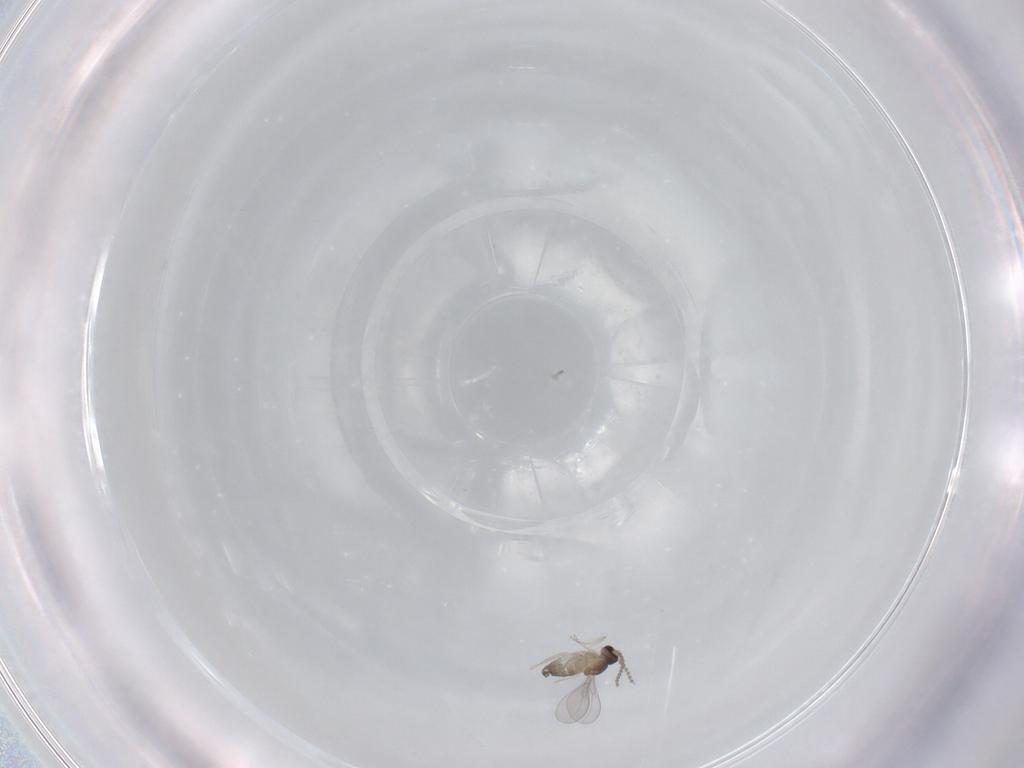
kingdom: Animalia
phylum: Arthropoda
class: Insecta
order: Diptera
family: Cecidomyiidae
